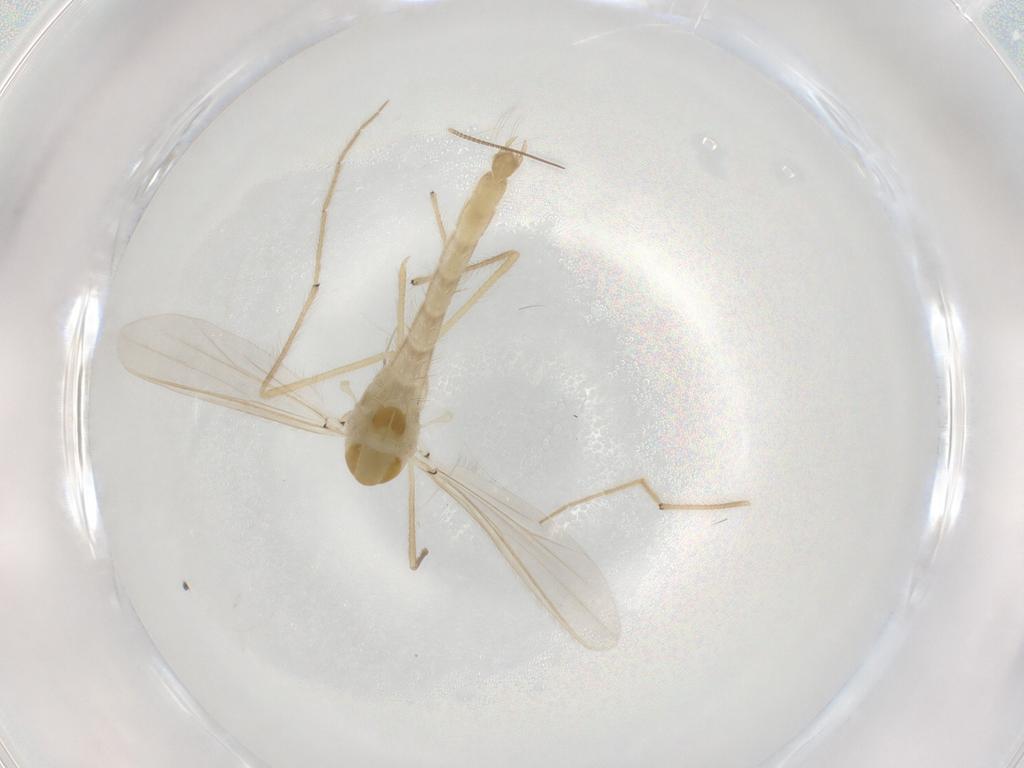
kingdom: Animalia
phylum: Arthropoda
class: Insecta
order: Diptera
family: Chironomidae
